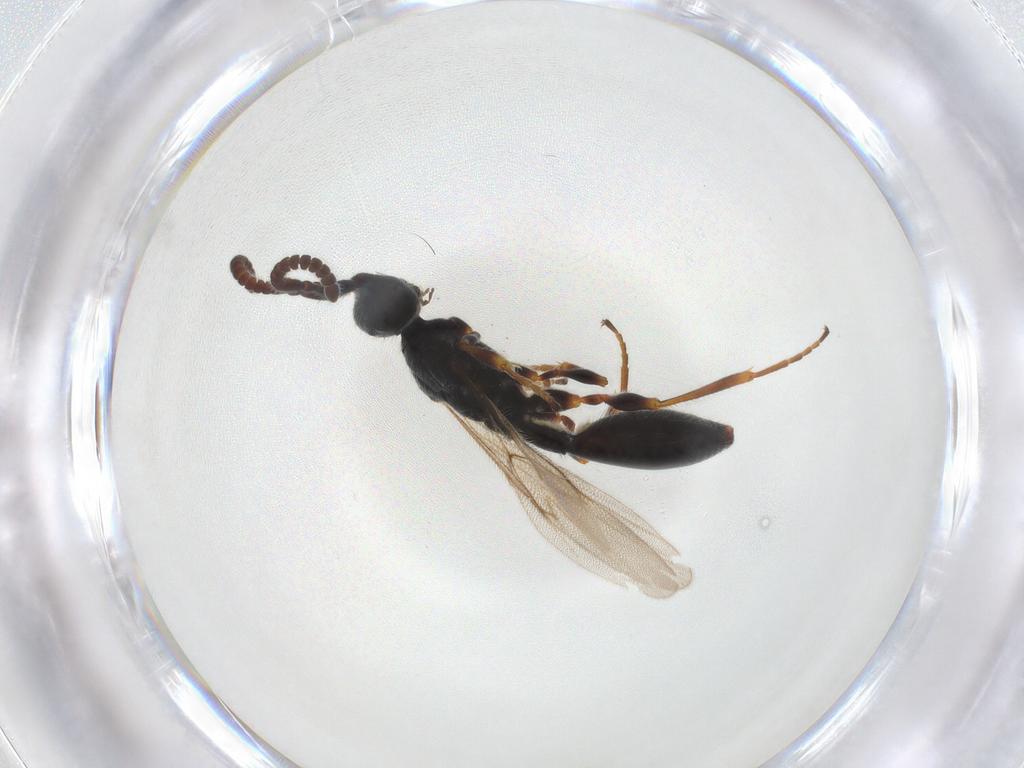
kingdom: Animalia
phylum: Arthropoda
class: Insecta
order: Hymenoptera
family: Diapriidae
